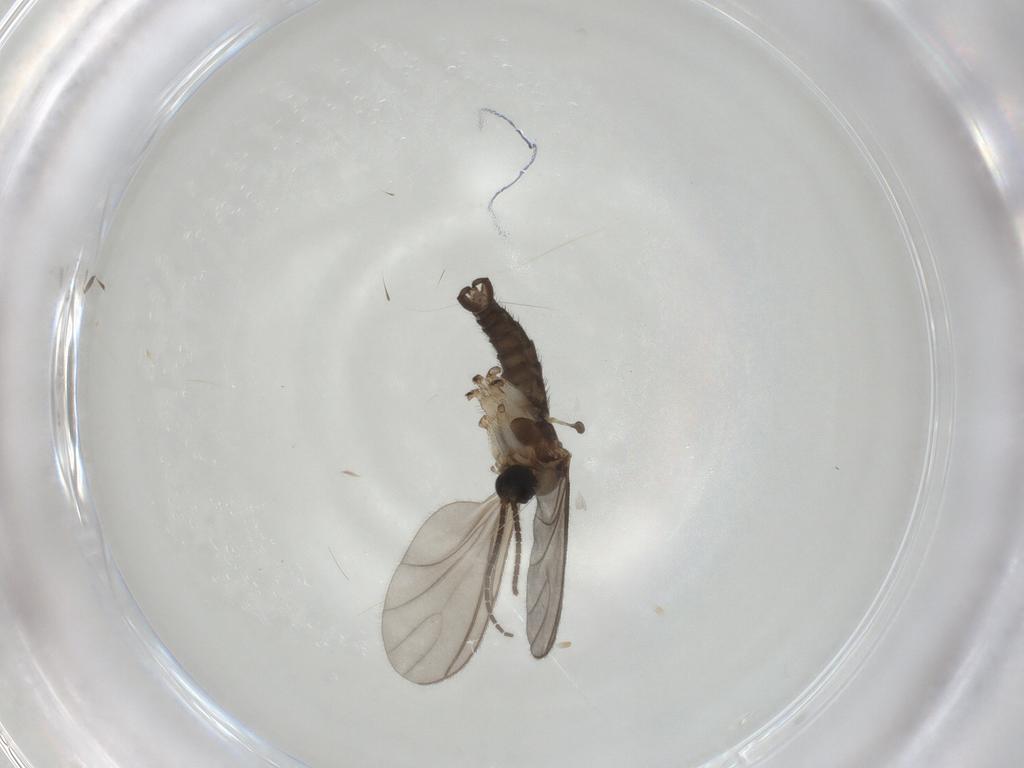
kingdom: Animalia
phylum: Arthropoda
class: Insecta
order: Diptera
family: Sciaridae
